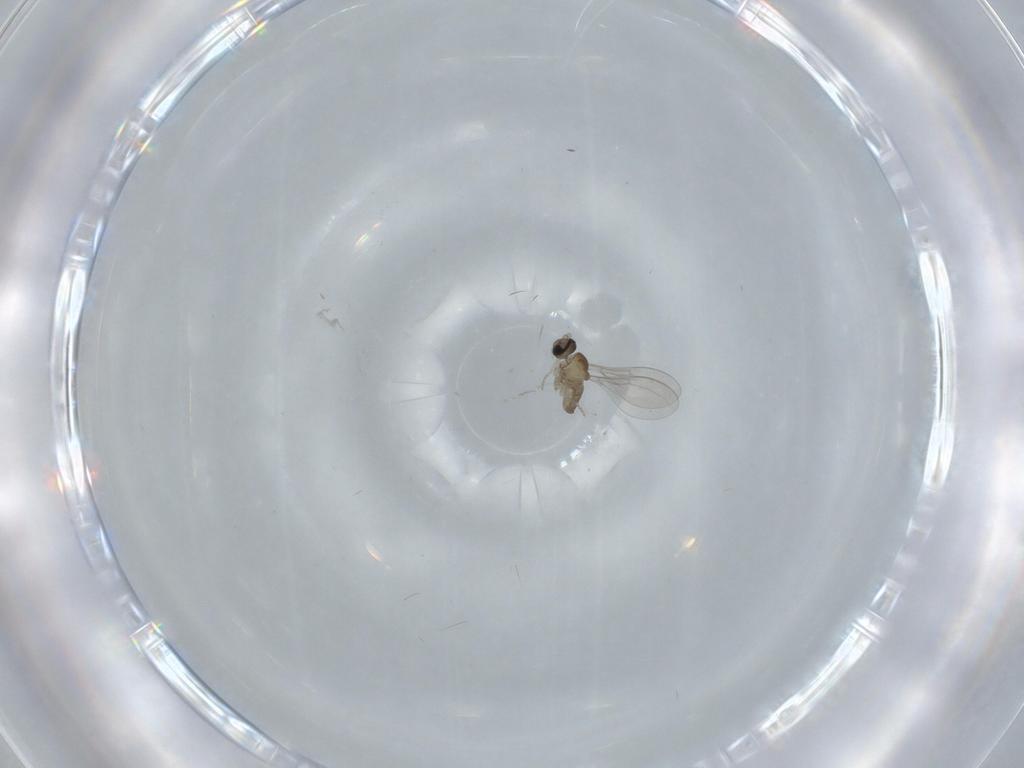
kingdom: Animalia
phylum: Arthropoda
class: Insecta
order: Diptera
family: Cecidomyiidae
